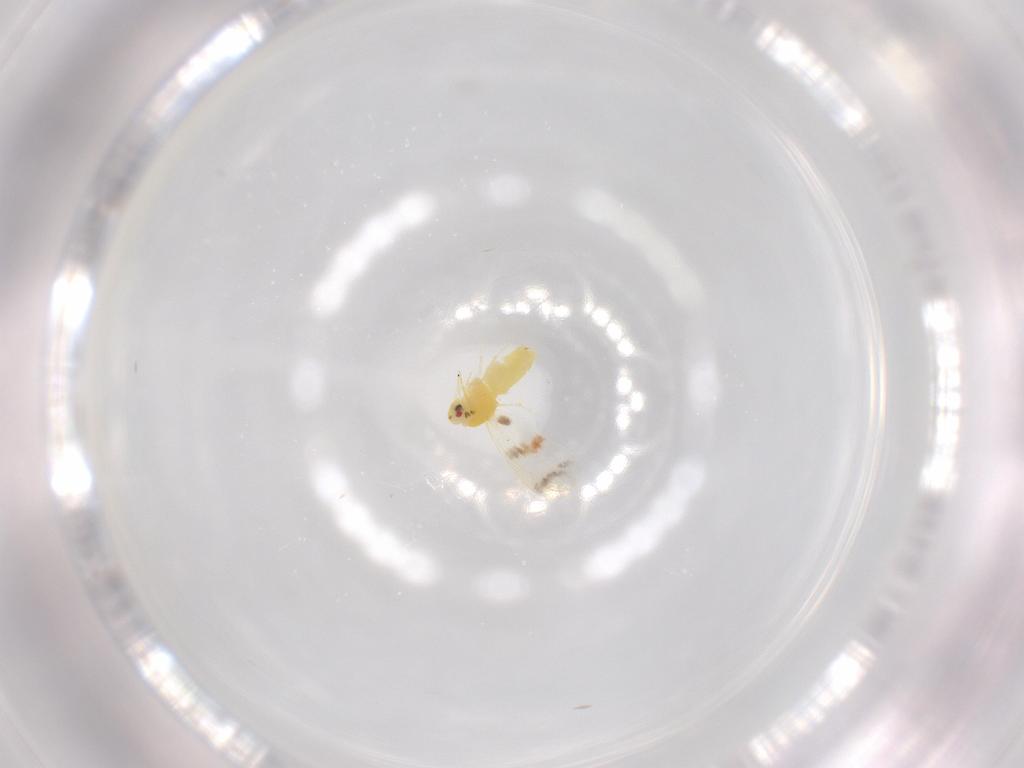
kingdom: Animalia
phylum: Arthropoda
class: Insecta
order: Hemiptera
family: Aleyrodidae
